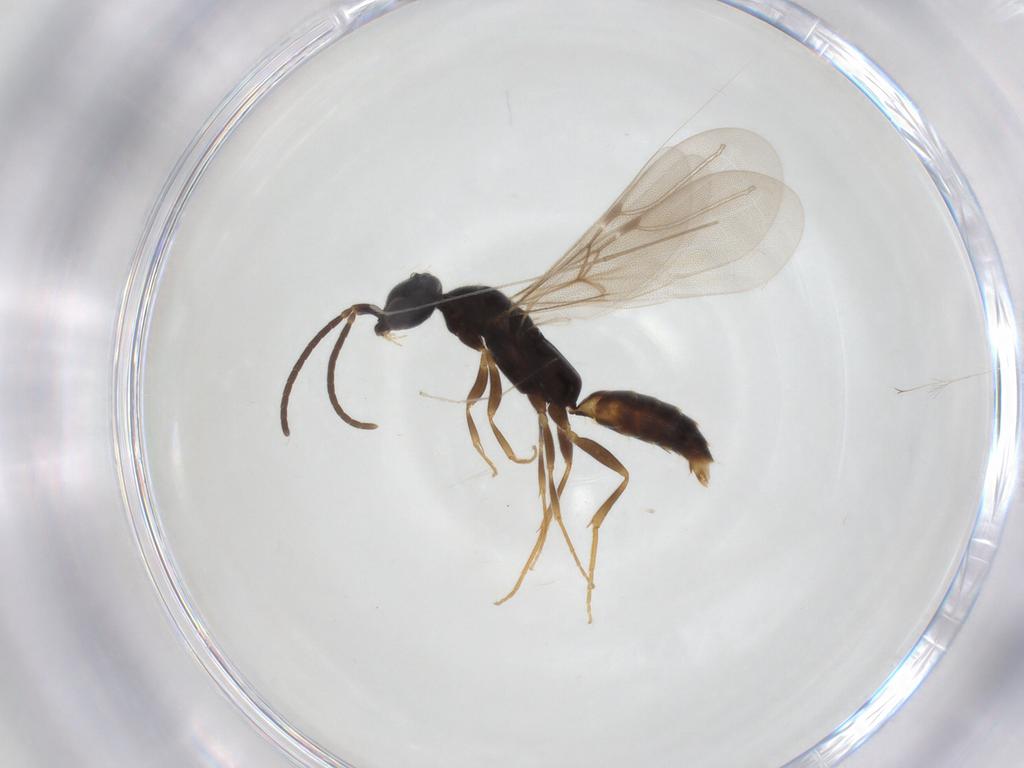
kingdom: Animalia
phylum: Arthropoda
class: Insecta
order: Hymenoptera
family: Bethylidae
